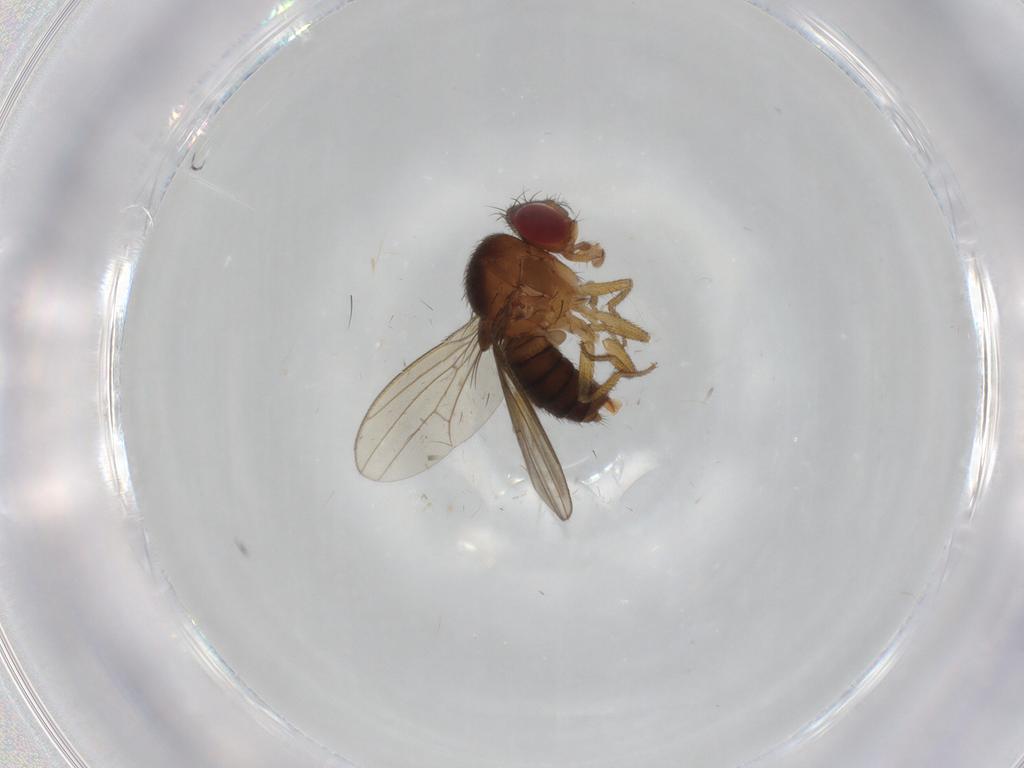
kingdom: Animalia
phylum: Arthropoda
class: Insecta
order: Diptera
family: Drosophilidae
